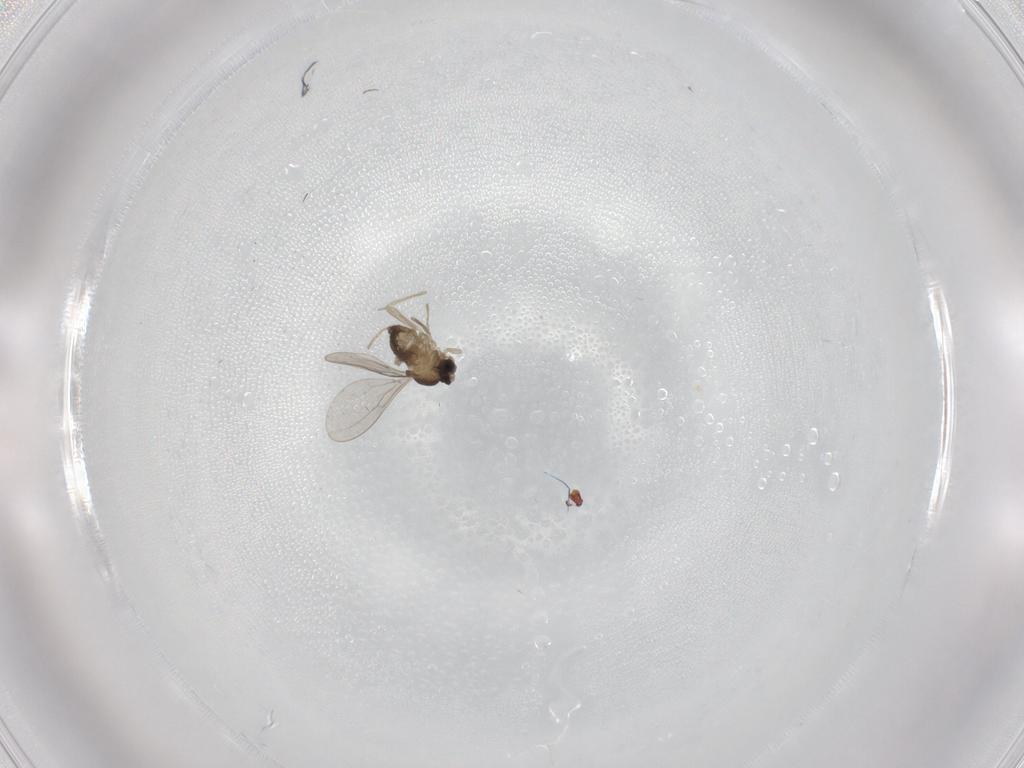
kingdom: Animalia
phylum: Arthropoda
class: Insecta
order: Diptera
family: Cecidomyiidae
